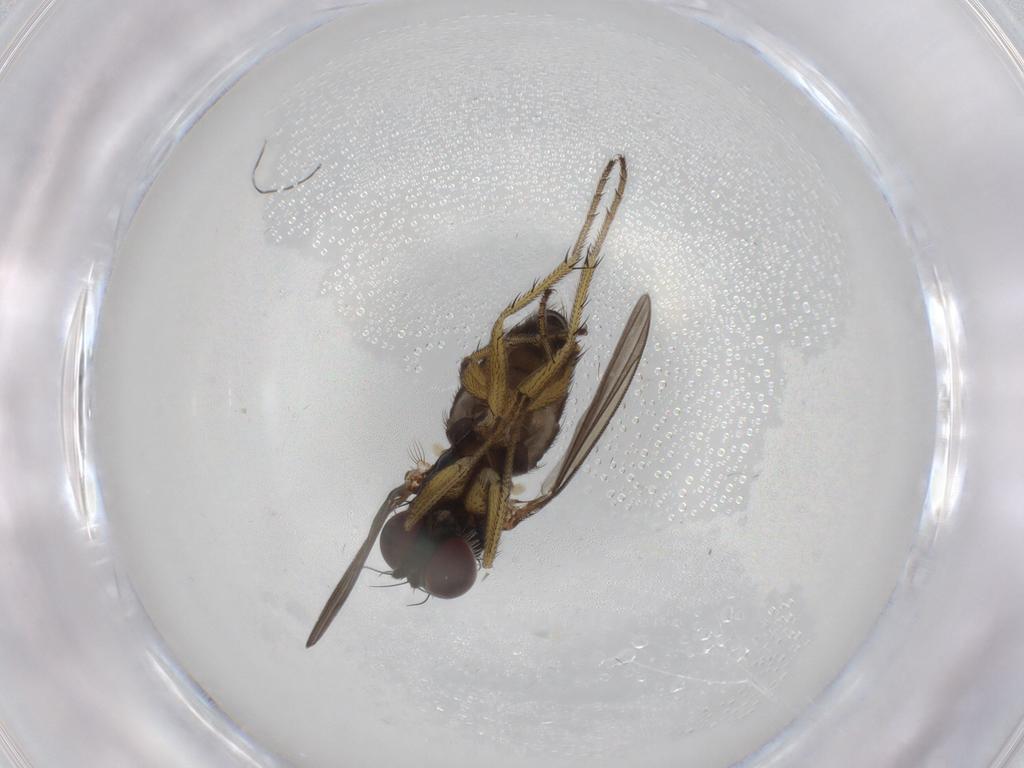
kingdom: Animalia
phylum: Arthropoda
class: Insecta
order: Diptera
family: Dolichopodidae
